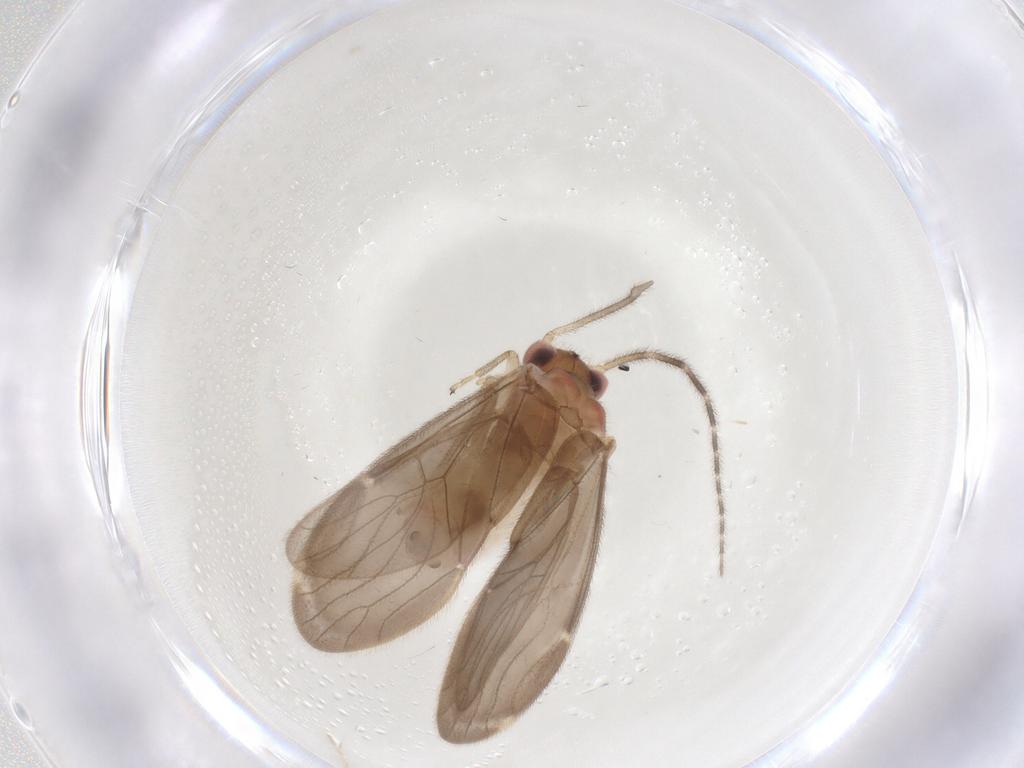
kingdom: Animalia
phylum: Arthropoda
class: Insecta
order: Psocodea
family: Amphipsocidae
